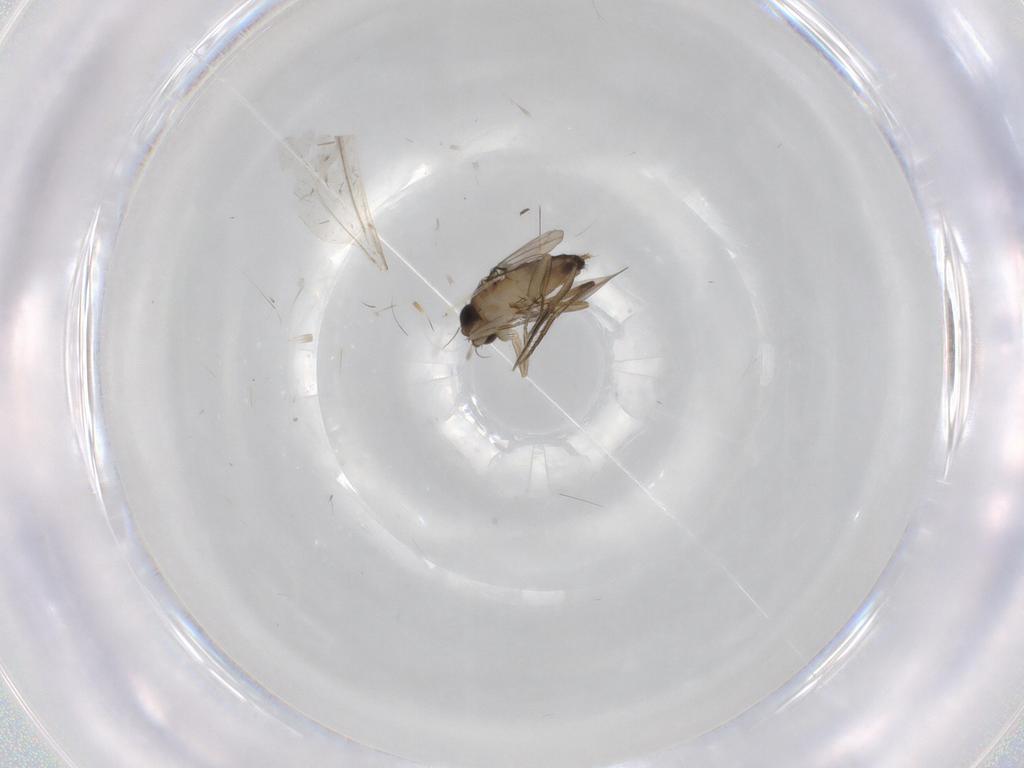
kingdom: Animalia
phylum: Arthropoda
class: Insecta
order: Diptera
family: Phoridae
